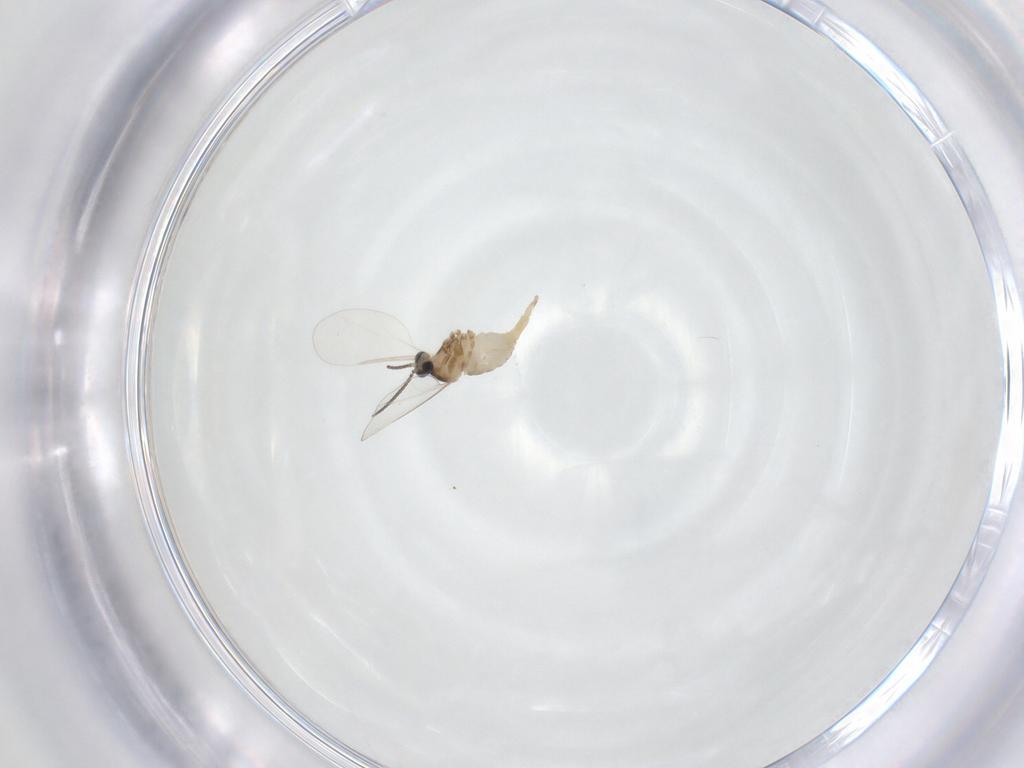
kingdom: Animalia
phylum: Arthropoda
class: Insecta
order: Diptera
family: Cecidomyiidae
